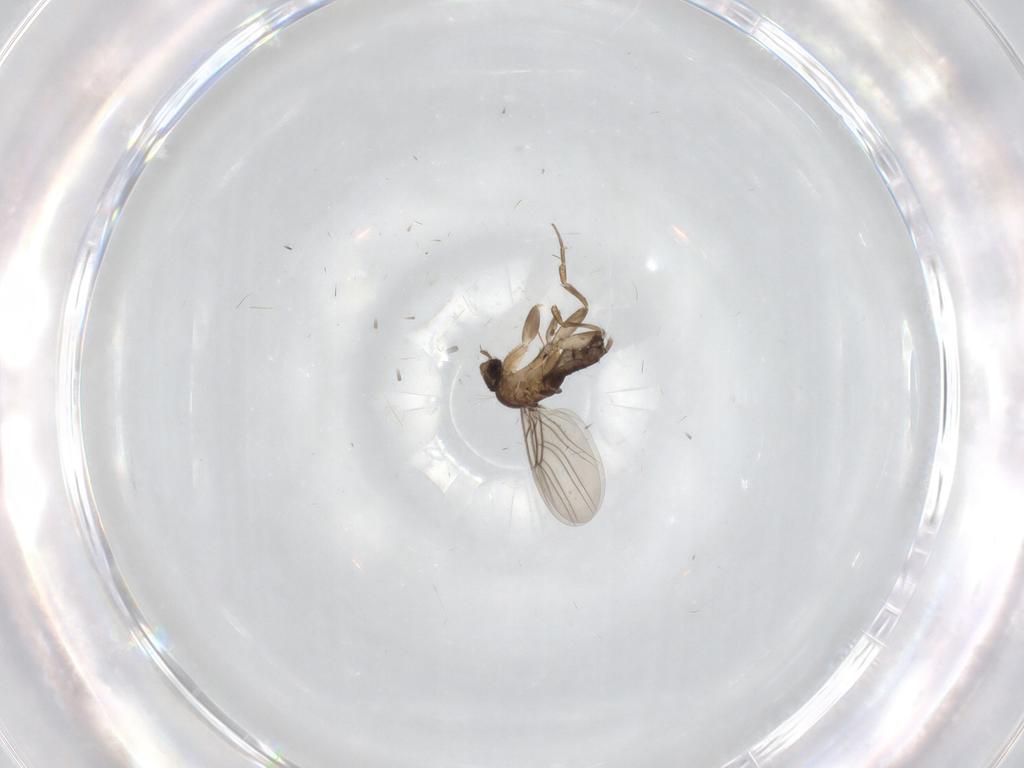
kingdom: Animalia
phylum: Arthropoda
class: Insecta
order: Diptera
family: Phoridae
